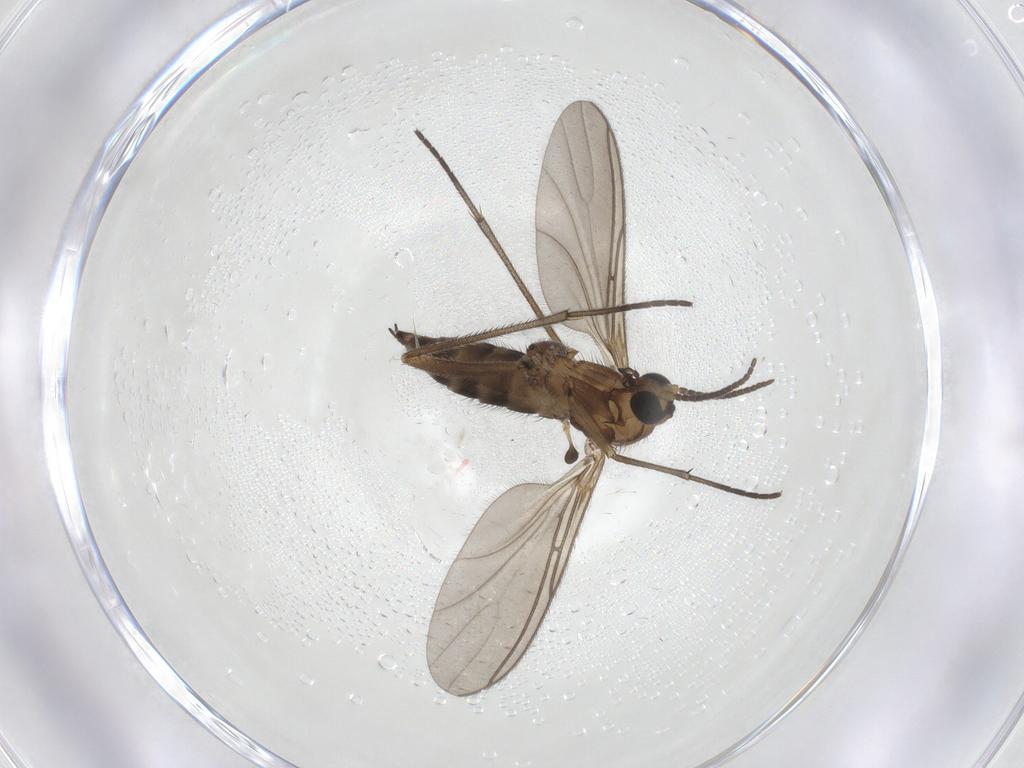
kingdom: Animalia
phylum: Arthropoda
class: Insecta
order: Diptera
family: Sciaridae
